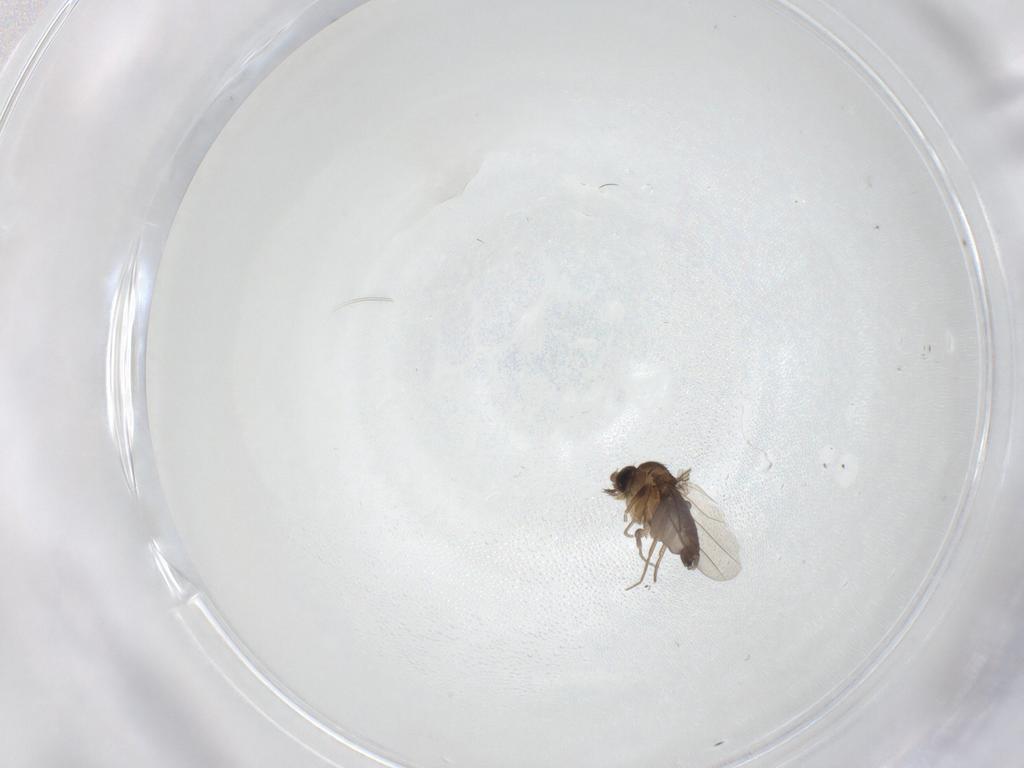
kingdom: Animalia
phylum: Arthropoda
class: Insecta
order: Diptera
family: Phoridae
